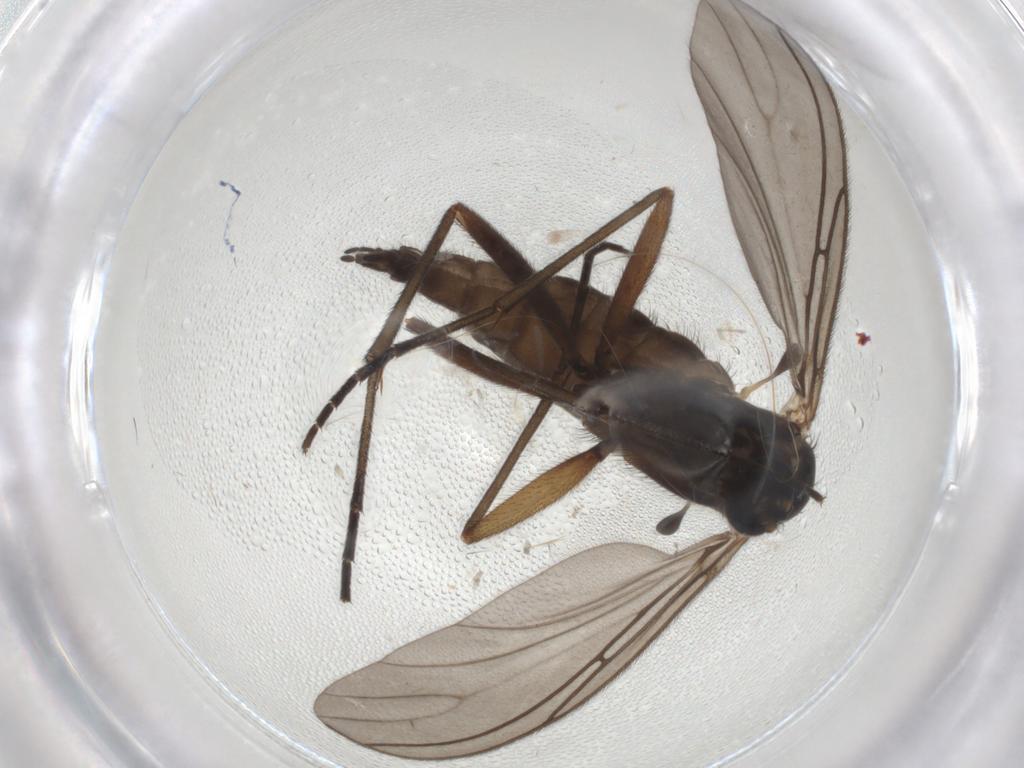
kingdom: Animalia
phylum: Arthropoda
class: Insecta
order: Diptera
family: Sciaridae
